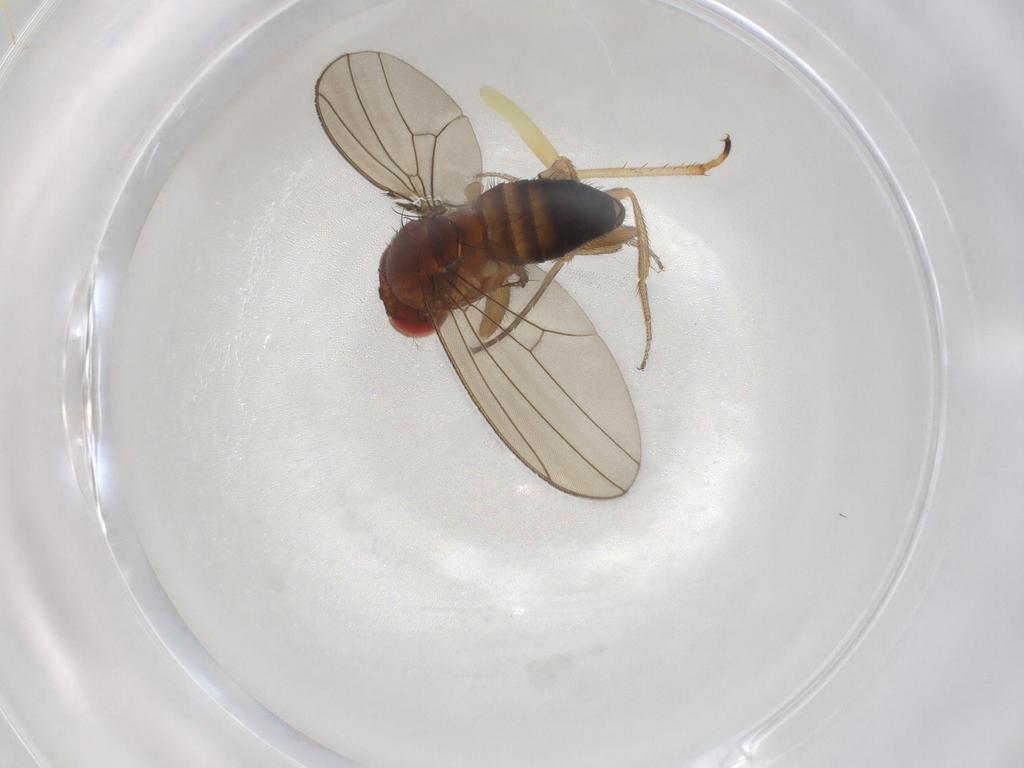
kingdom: Animalia
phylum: Arthropoda
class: Insecta
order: Diptera
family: Drosophilidae
